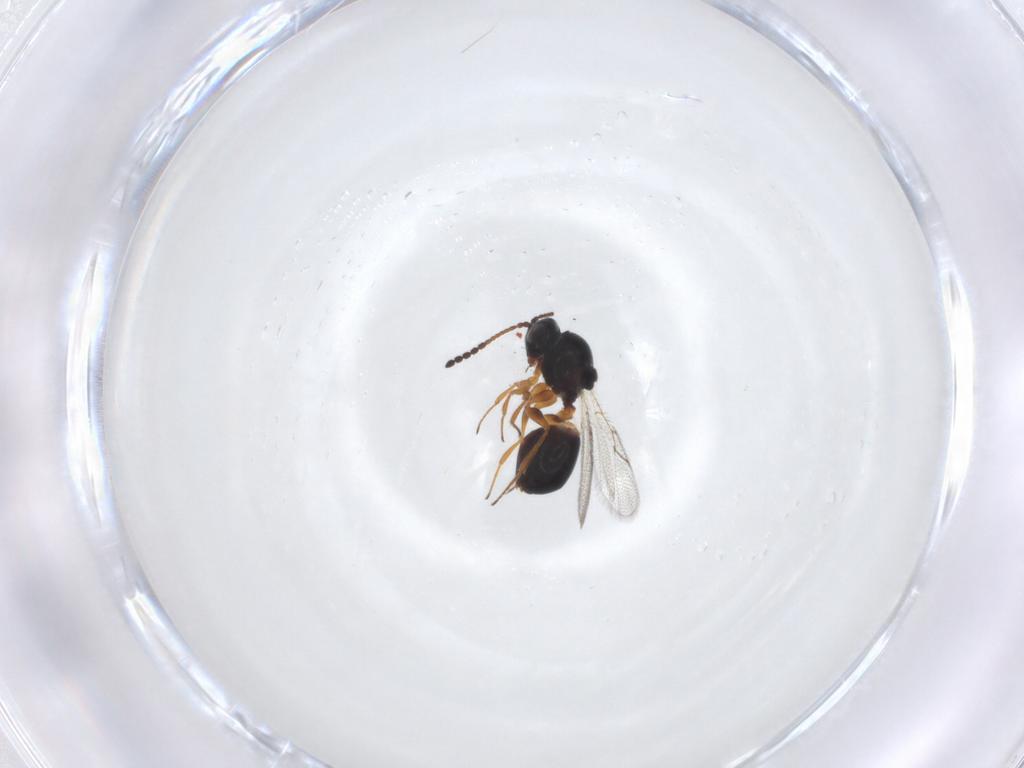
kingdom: Animalia
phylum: Arthropoda
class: Insecta
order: Hymenoptera
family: Figitidae
